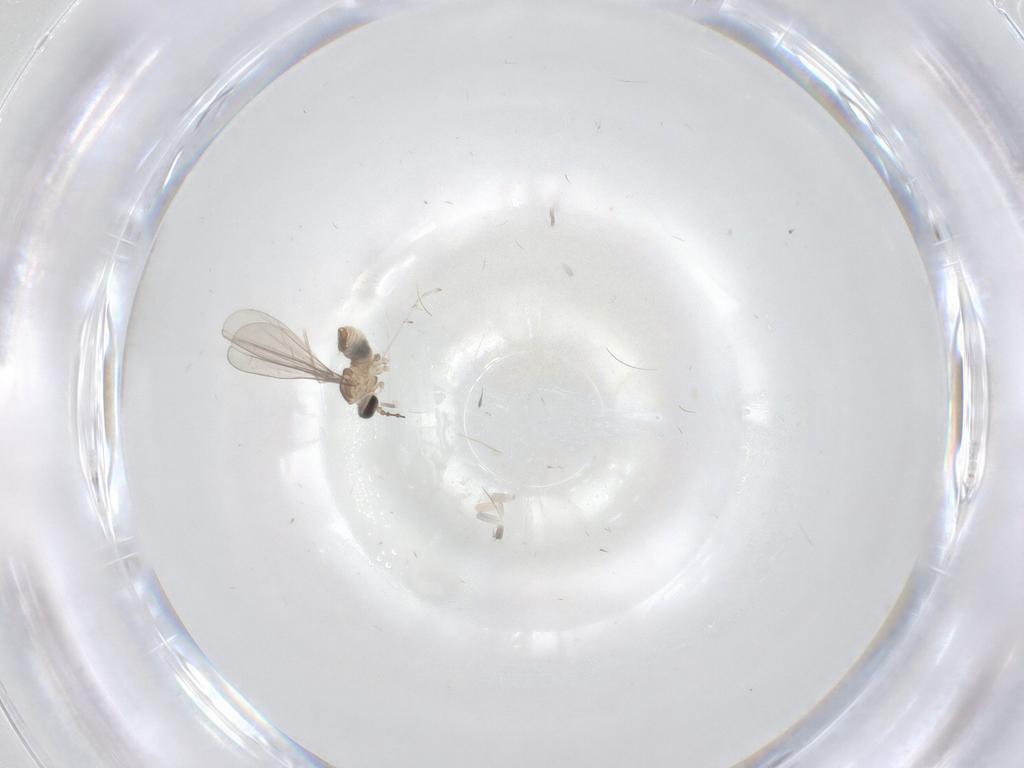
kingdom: Animalia
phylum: Arthropoda
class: Insecta
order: Diptera
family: Cecidomyiidae
